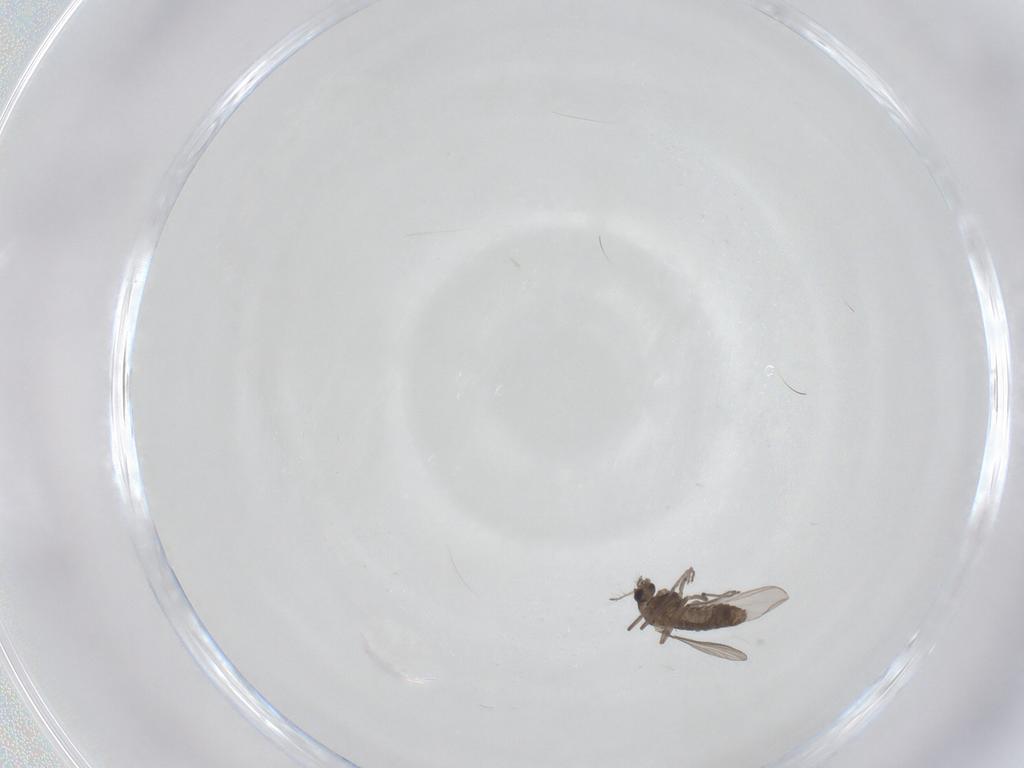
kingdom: Animalia
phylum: Arthropoda
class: Insecta
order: Diptera
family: Chironomidae
